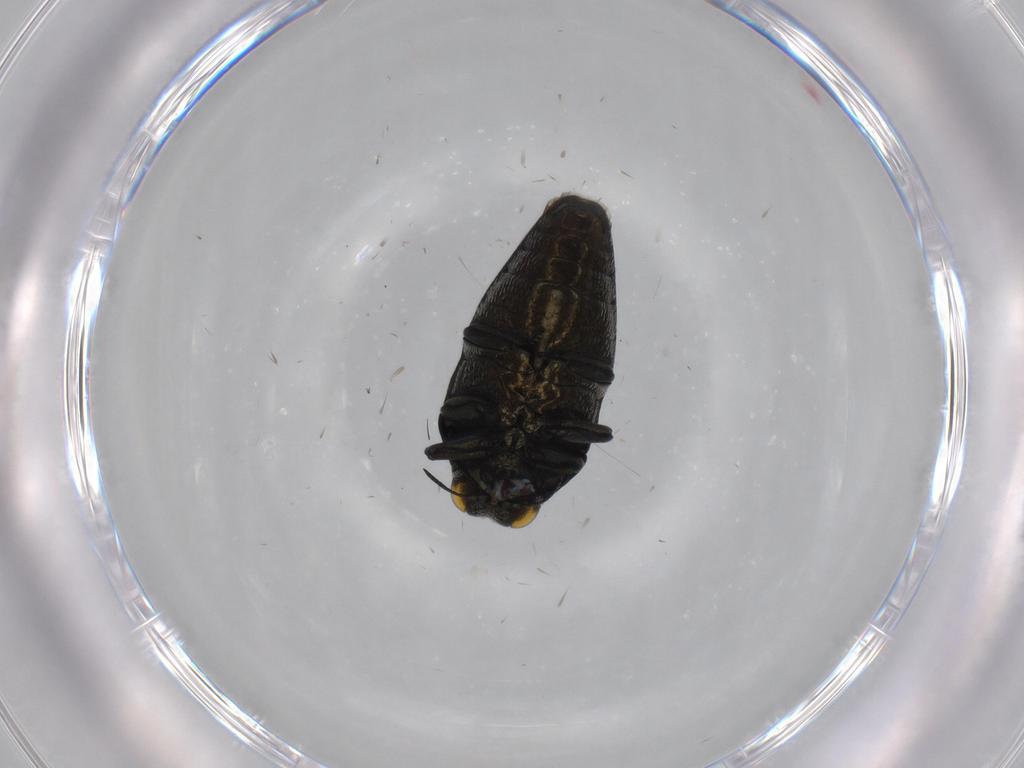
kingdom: Animalia
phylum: Arthropoda
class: Insecta
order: Coleoptera
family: Buprestidae
